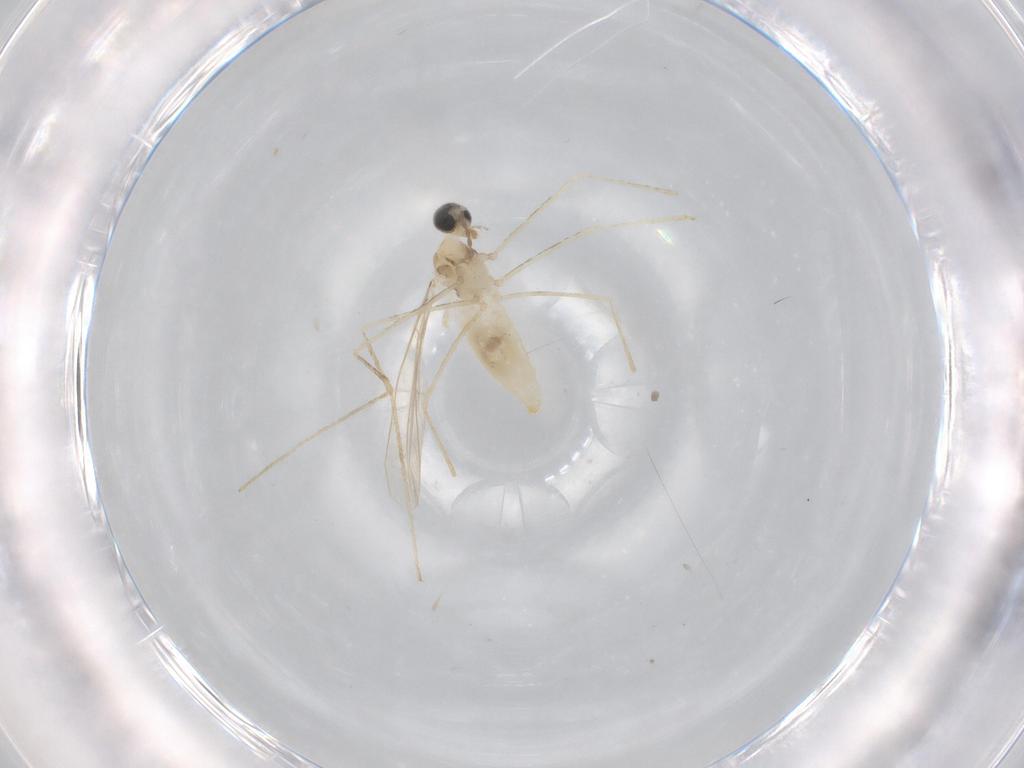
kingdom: Animalia
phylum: Arthropoda
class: Insecta
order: Diptera
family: Cecidomyiidae
